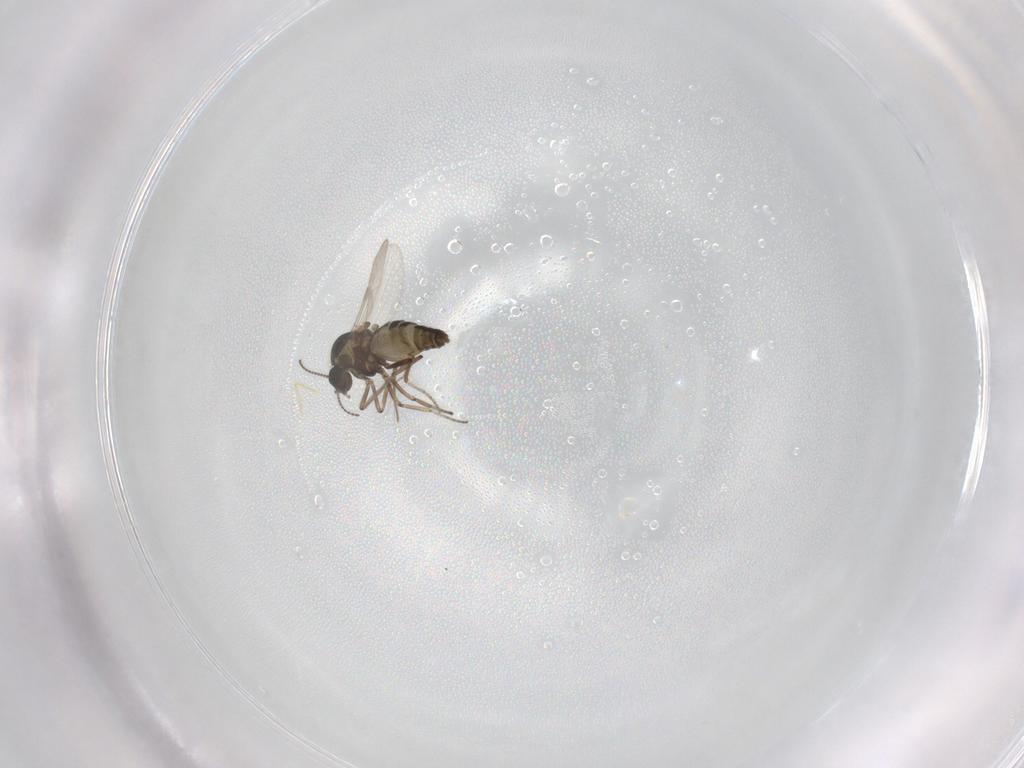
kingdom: Animalia
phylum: Arthropoda
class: Insecta
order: Diptera
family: Ceratopogonidae
